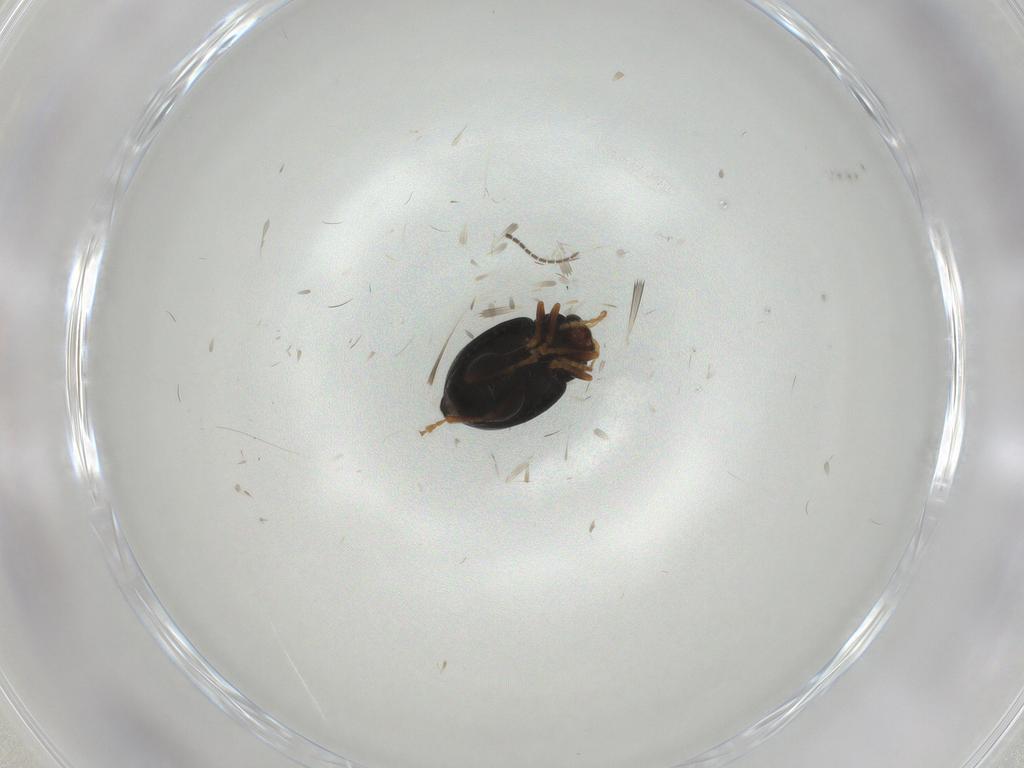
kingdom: Animalia
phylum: Arthropoda
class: Insecta
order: Coleoptera
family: Chrysomelidae
